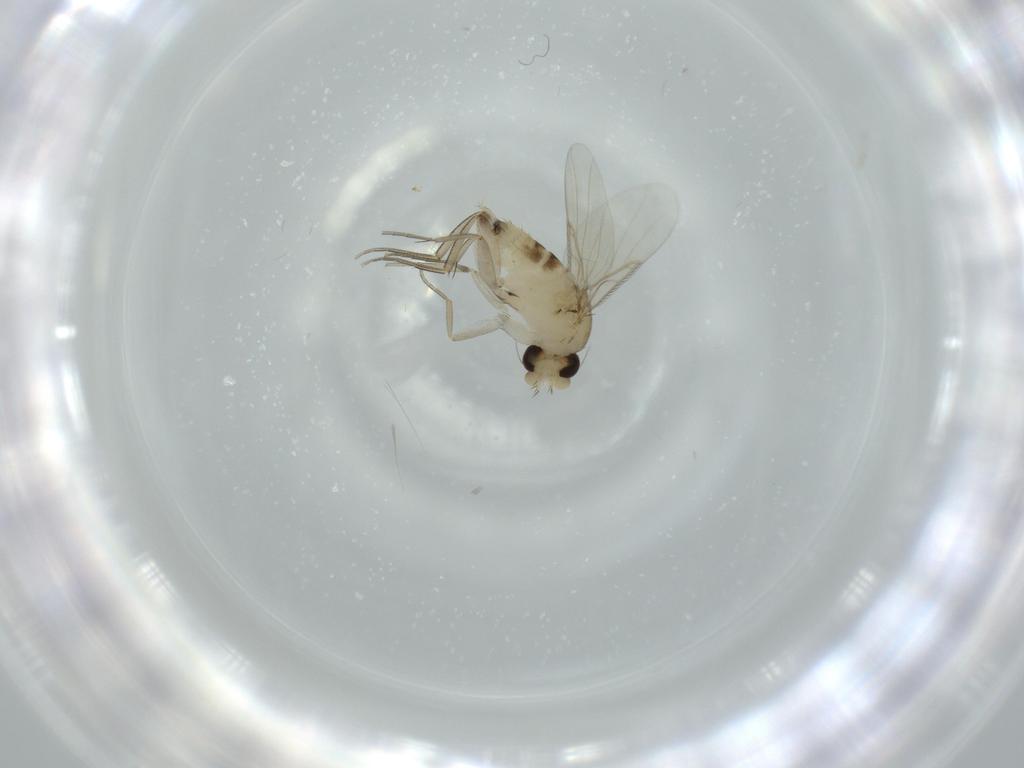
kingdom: Animalia
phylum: Arthropoda
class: Insecta
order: Diptera
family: Phoridae
